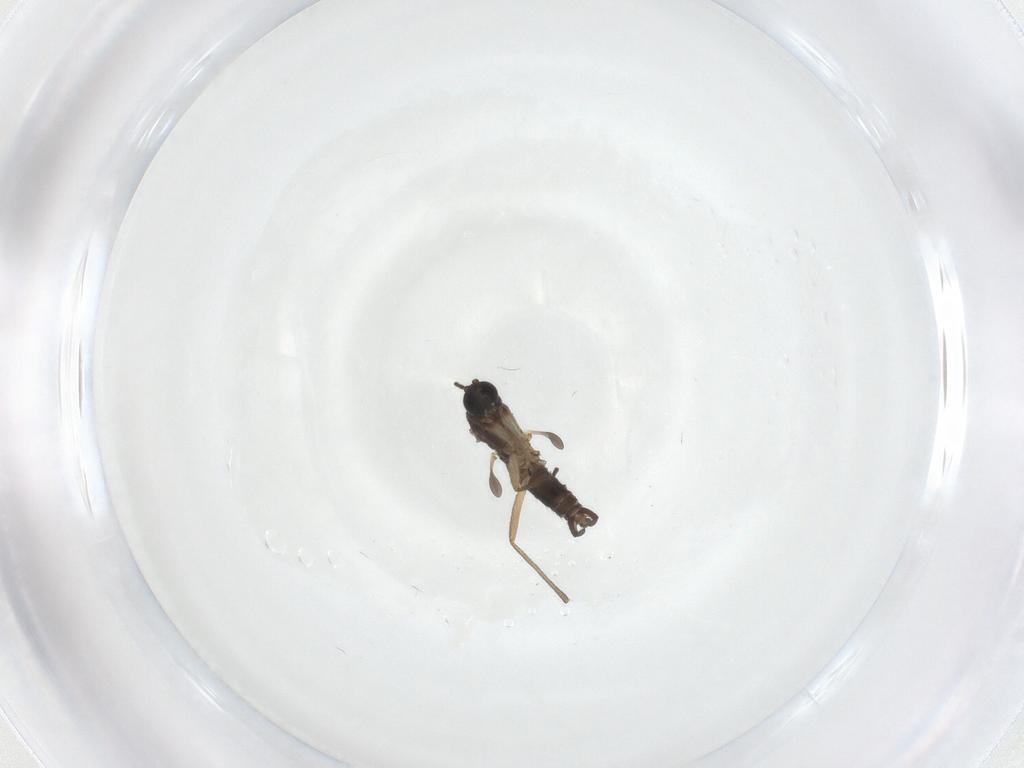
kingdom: Animalia
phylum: Arthropoda
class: Insecta
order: Diptera
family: Sciaridae
